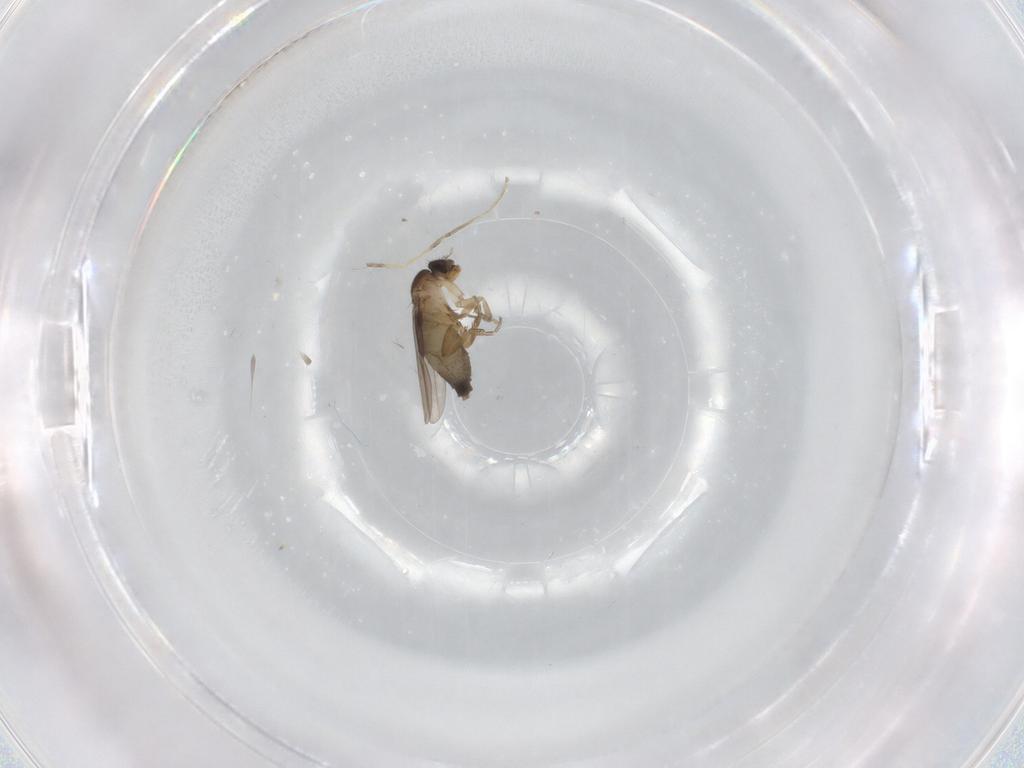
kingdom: Animalia
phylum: Arthropoda
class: Insecta
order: Diptera
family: Phoridae
